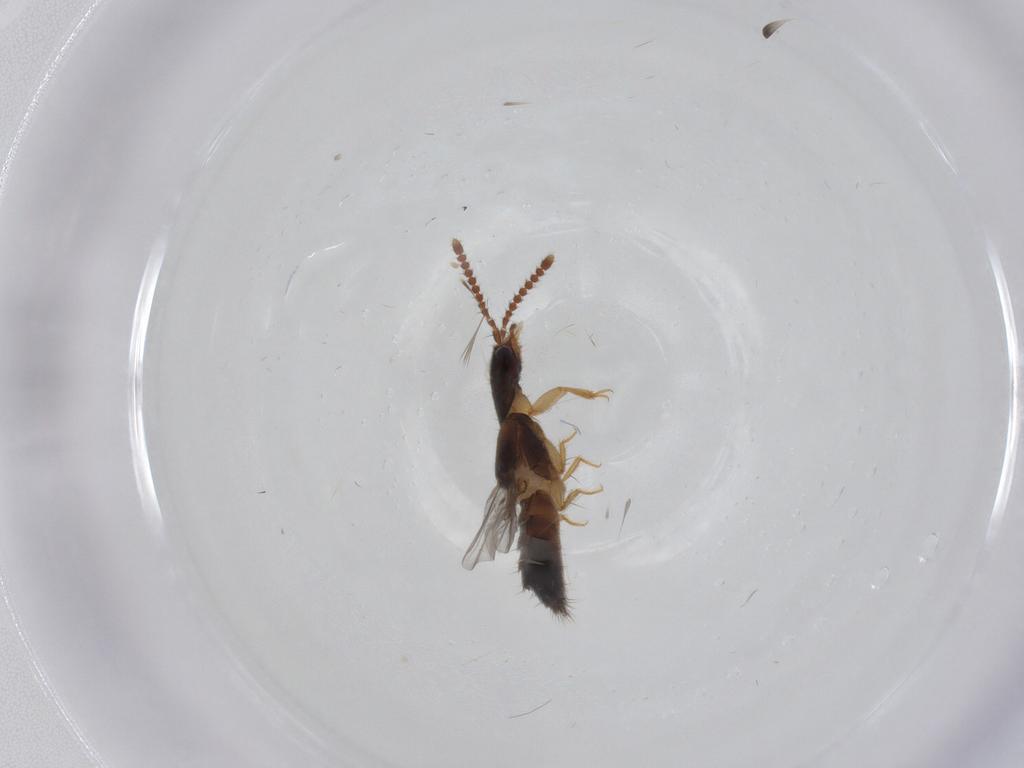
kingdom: Animalia
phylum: Arthropoda
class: Insecta
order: Coleoptera
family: Staphylinidae
